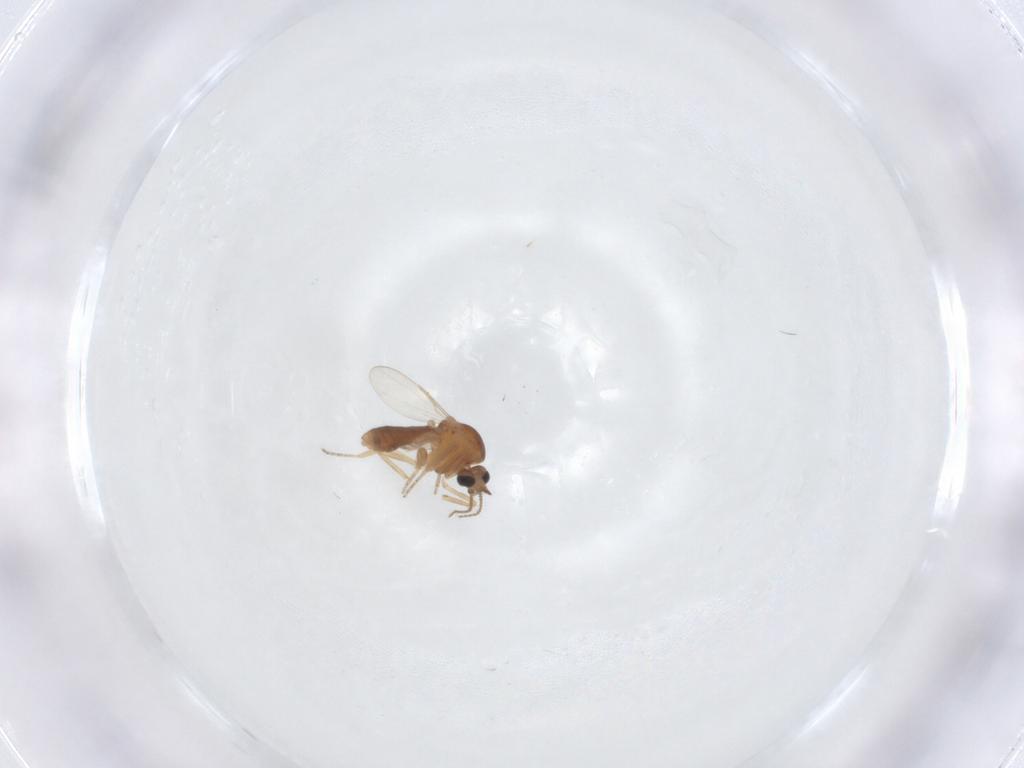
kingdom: Animalia
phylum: Arthropoda
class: Insecta
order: Diptera
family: Ceratopogonidae
